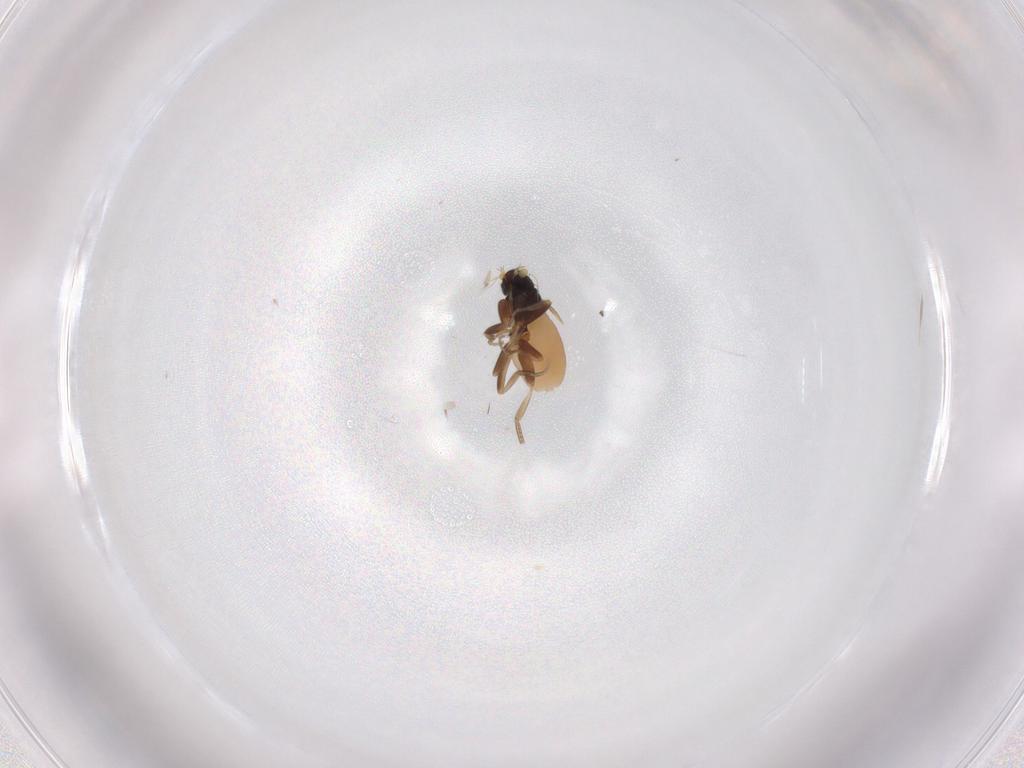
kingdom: Animalia
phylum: Arthropoda
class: Insecta
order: Diptera
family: Phoridae
